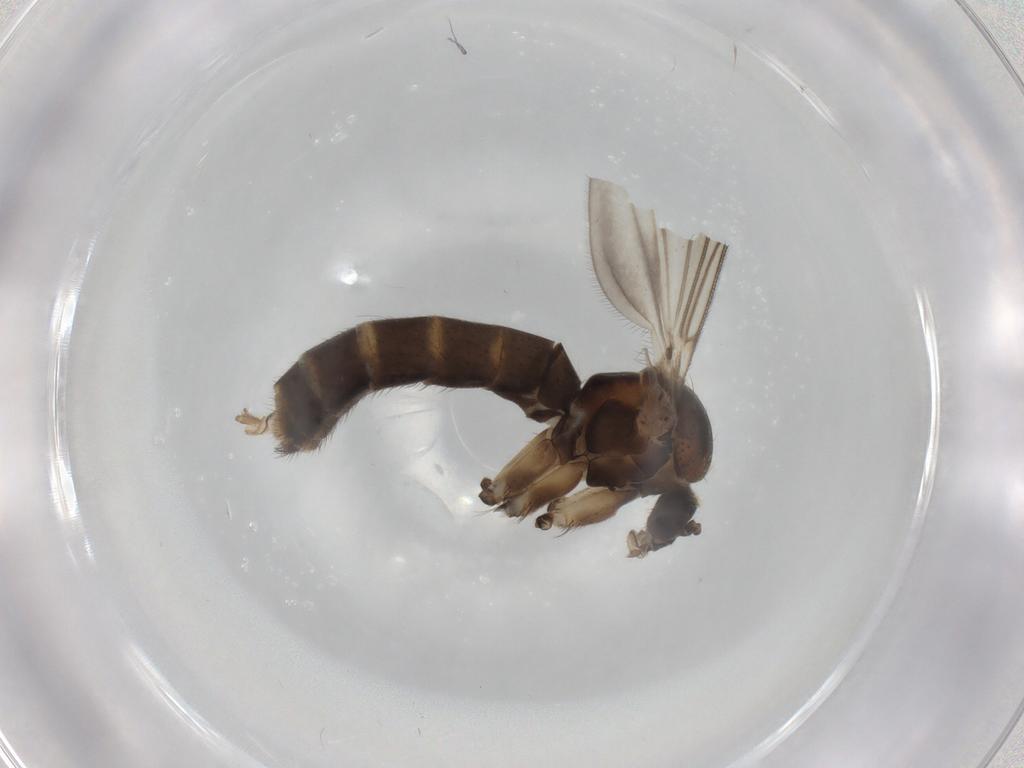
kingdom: Animalia
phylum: Arthropoda
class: Insecta
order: Diptera
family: Mycetophilidae
